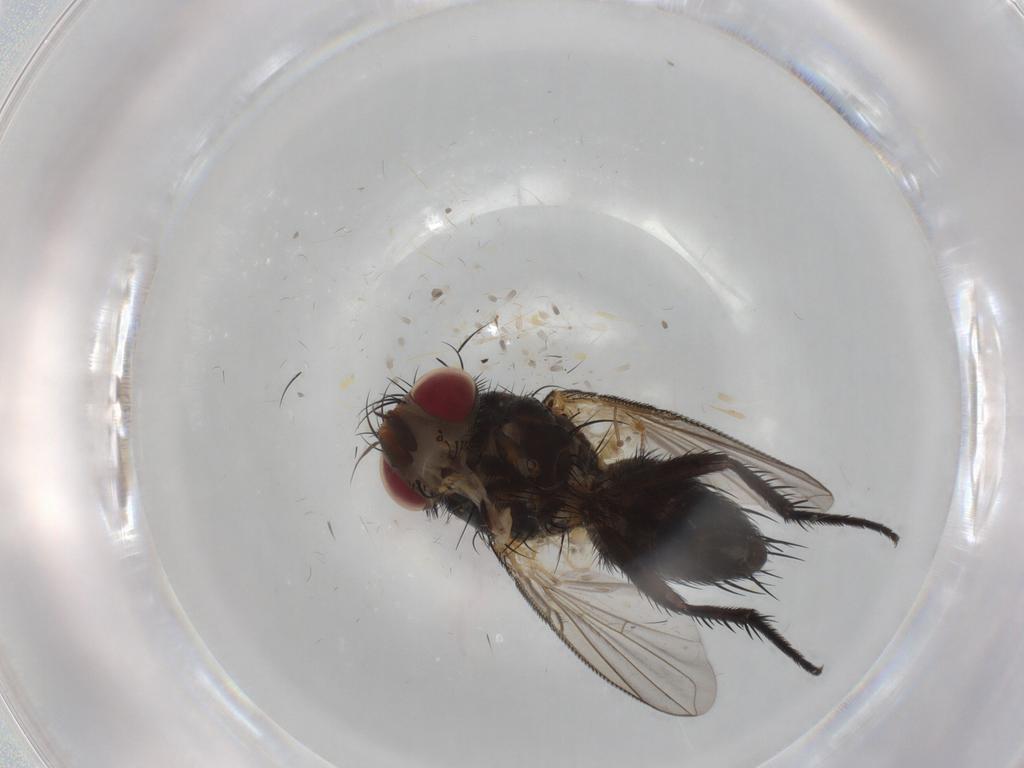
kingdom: Animalia
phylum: Arthropoda
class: Insecta
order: Diptera
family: Tachinidae
